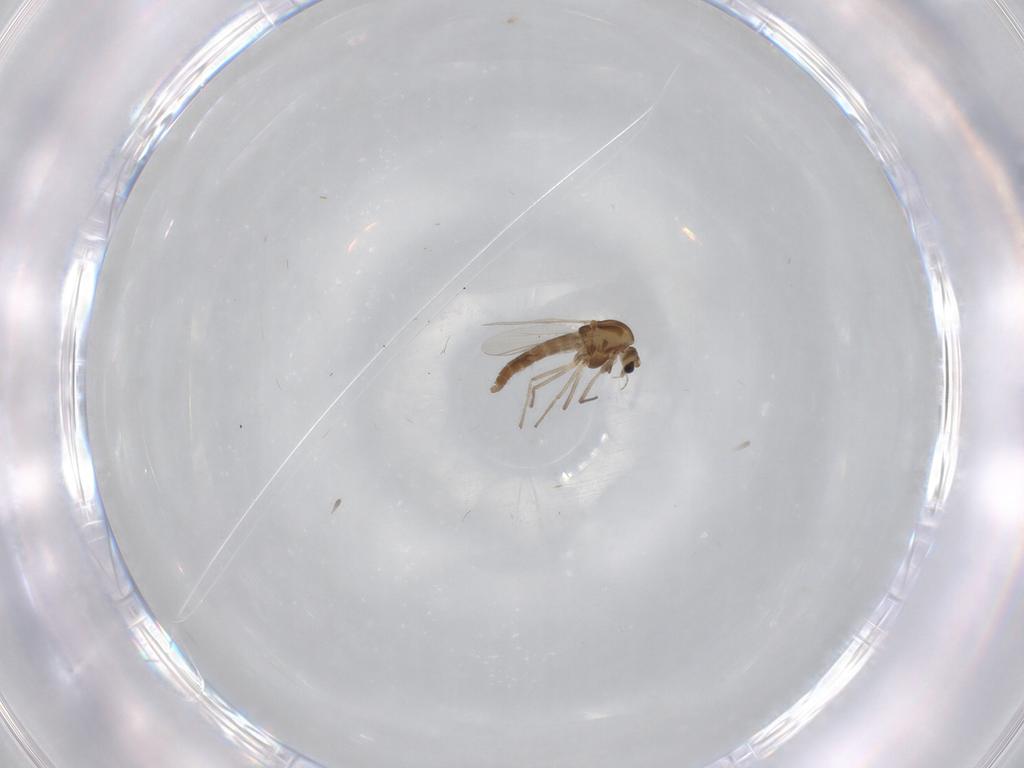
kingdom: Animalia
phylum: Arthropoda
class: Insecta
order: Diptera
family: Chironomidae
